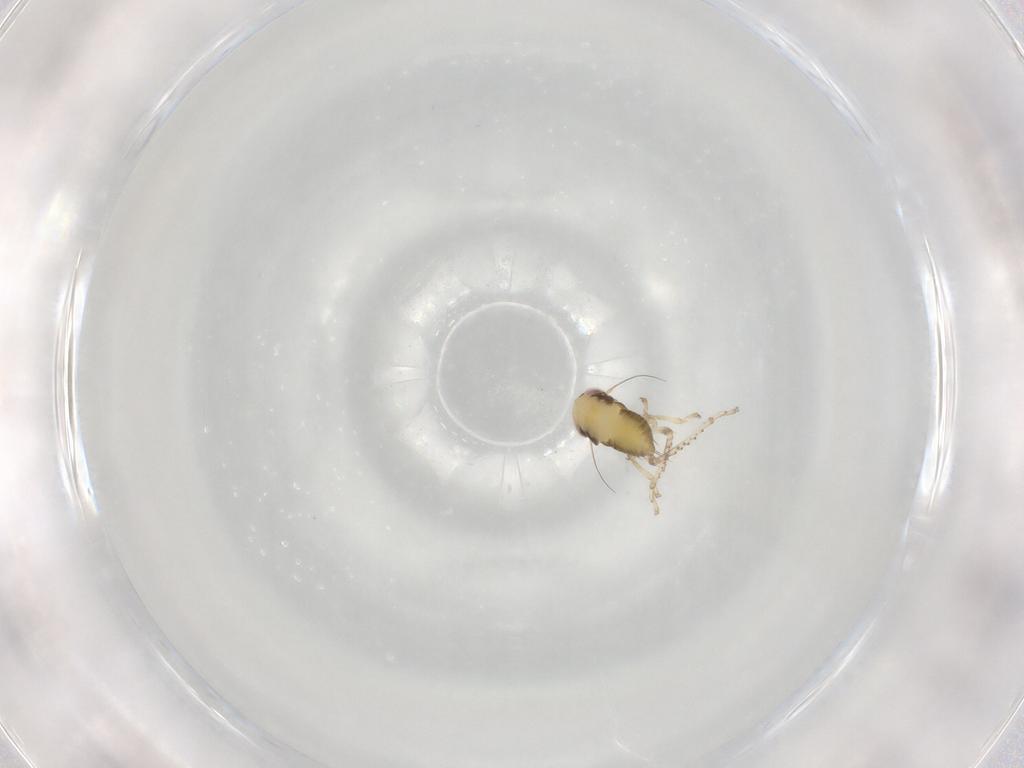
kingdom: Animalia
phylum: Arthropoda
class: Insecta
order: Hemiptera
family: Cicadellidae
